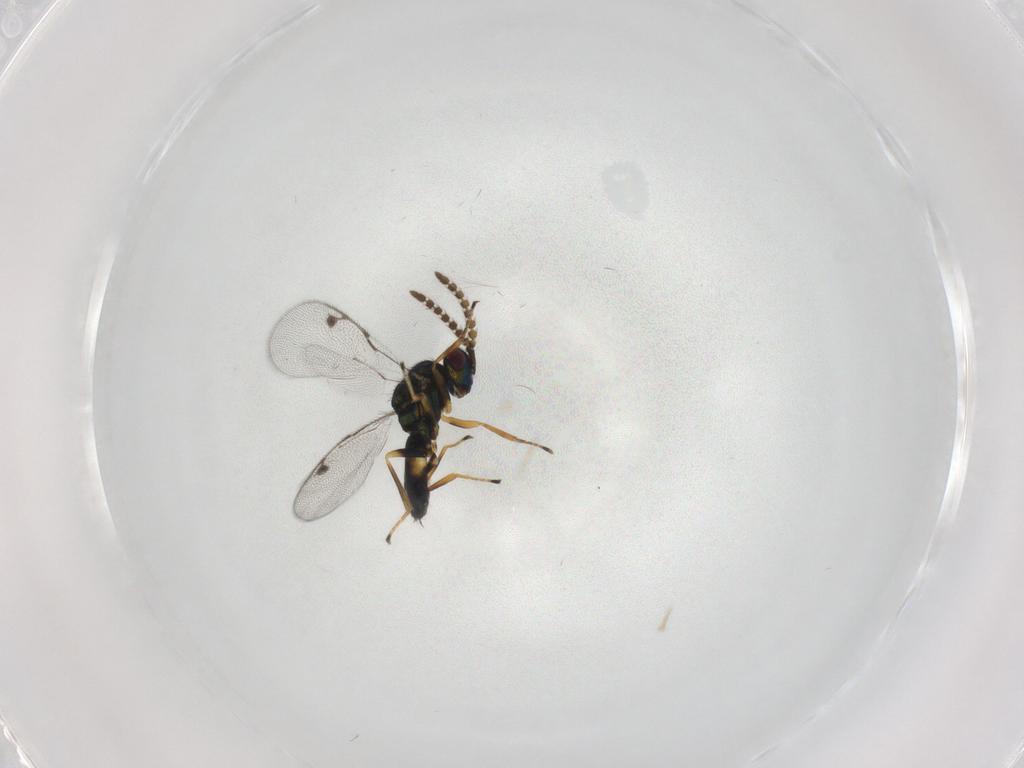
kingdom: Animalia
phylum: Arthropoda
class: Insecta
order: Hymenoptera
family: Pirenidae
